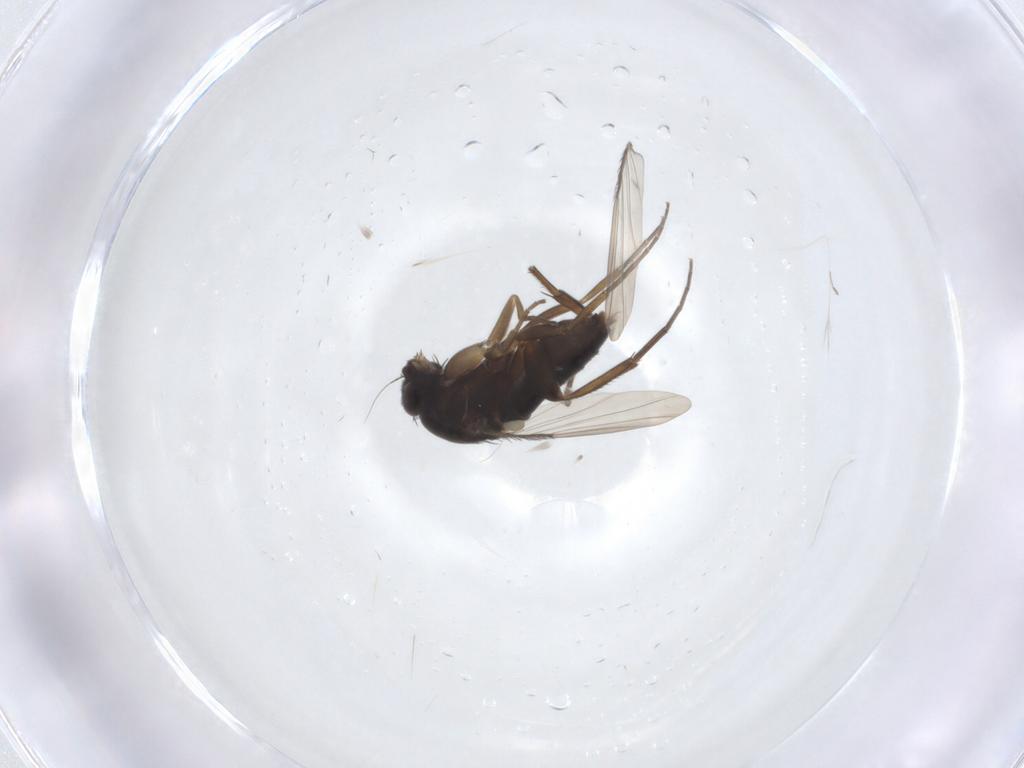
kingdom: Animalia
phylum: Arthropoda
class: Insecta
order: Diptera
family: Phoridae
